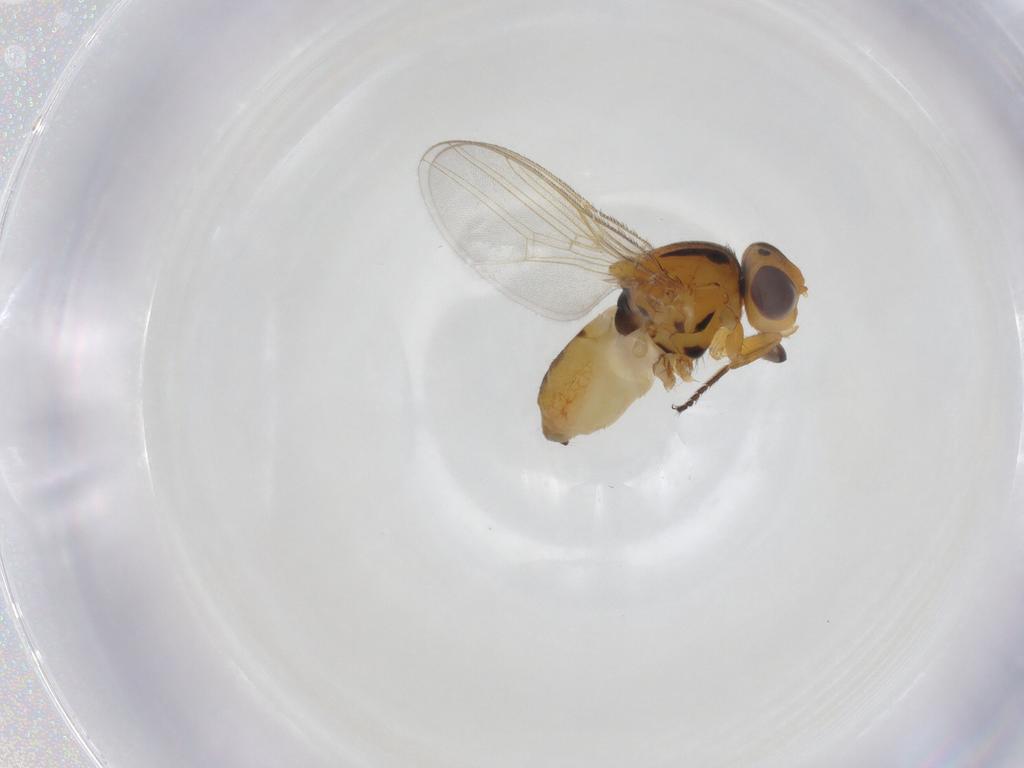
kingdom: Animalia
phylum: Arthropoda
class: Insecta
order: Diptera
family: Chloropidae
